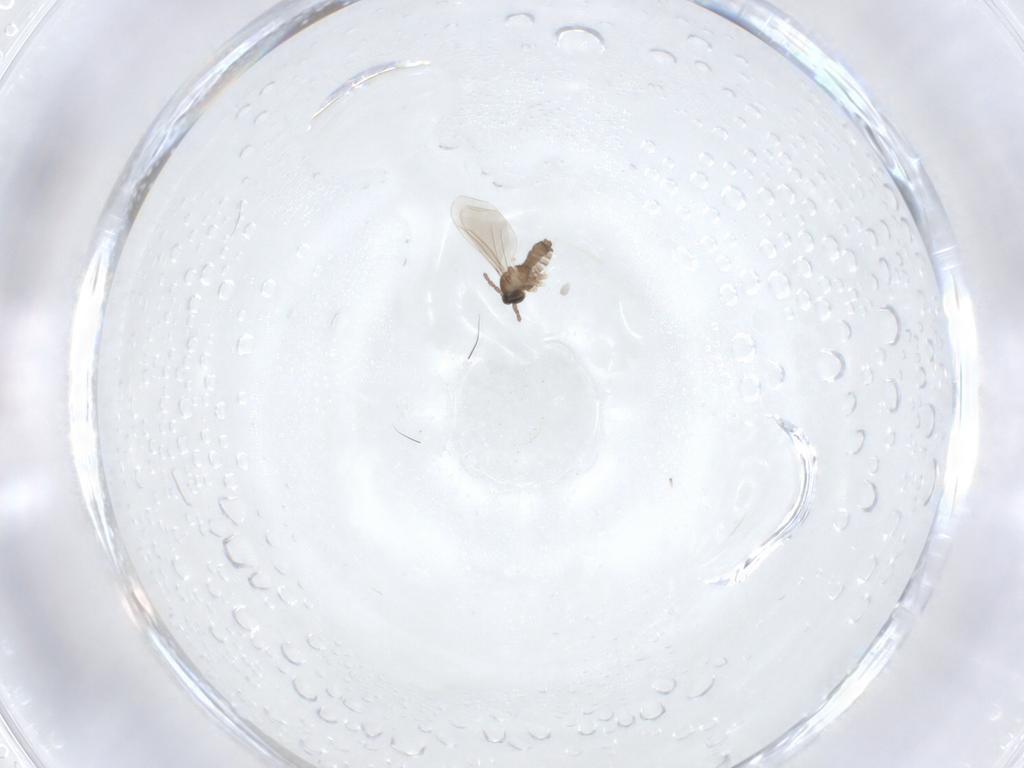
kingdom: Animalia
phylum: Arthropoda
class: Insecta
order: Diptera
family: Cecidomyiidae
